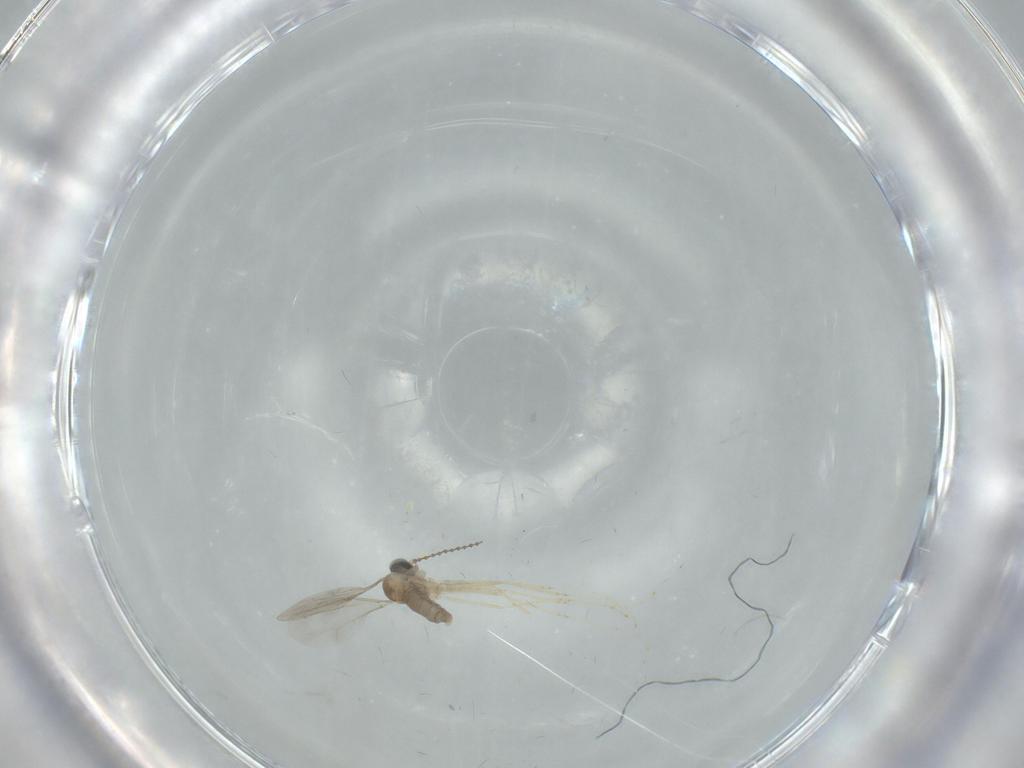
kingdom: Animalia
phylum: Arthropoda
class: Insecta
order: Diptera
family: Cecidomyiidae
